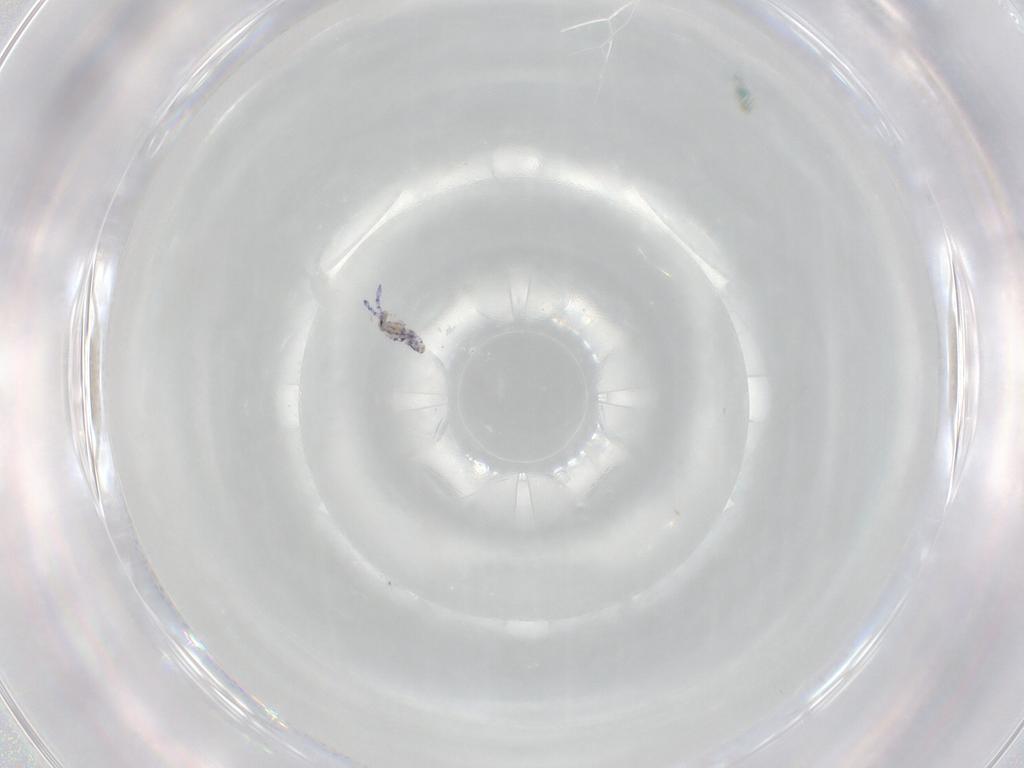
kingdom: Animalia
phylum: Arthropoda
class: Collembola
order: Entomobryomorpha
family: Entomobryidae
